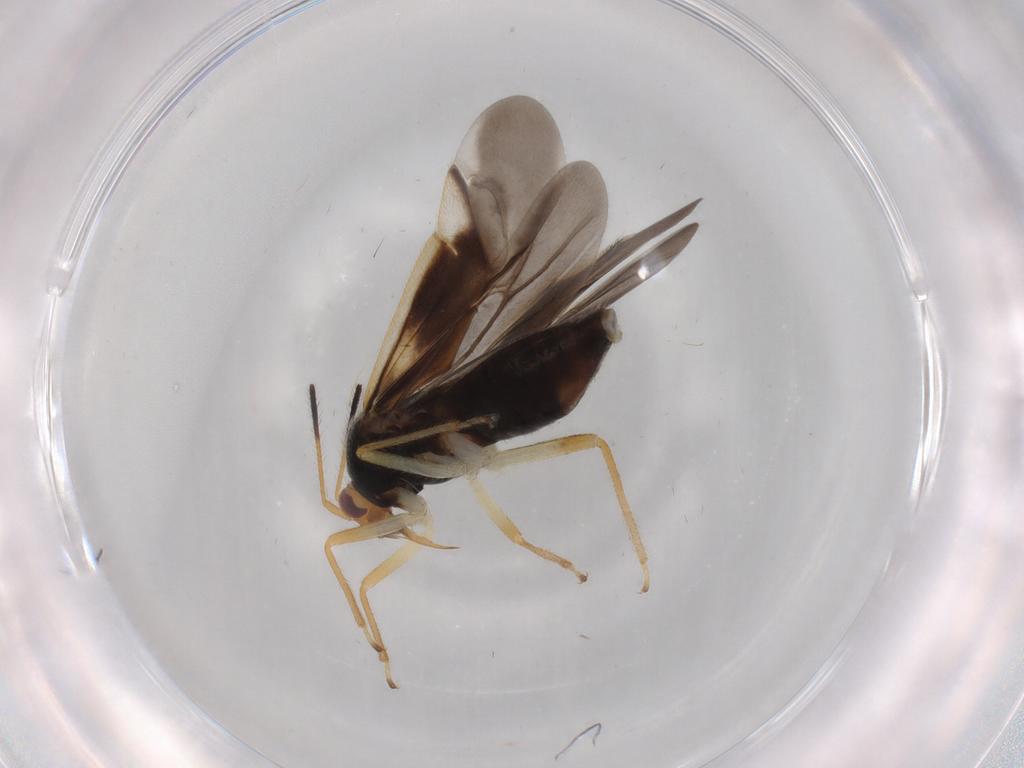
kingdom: Animalia
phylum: Arthropoda
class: Insecta
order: Hemiptera
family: Miridae
